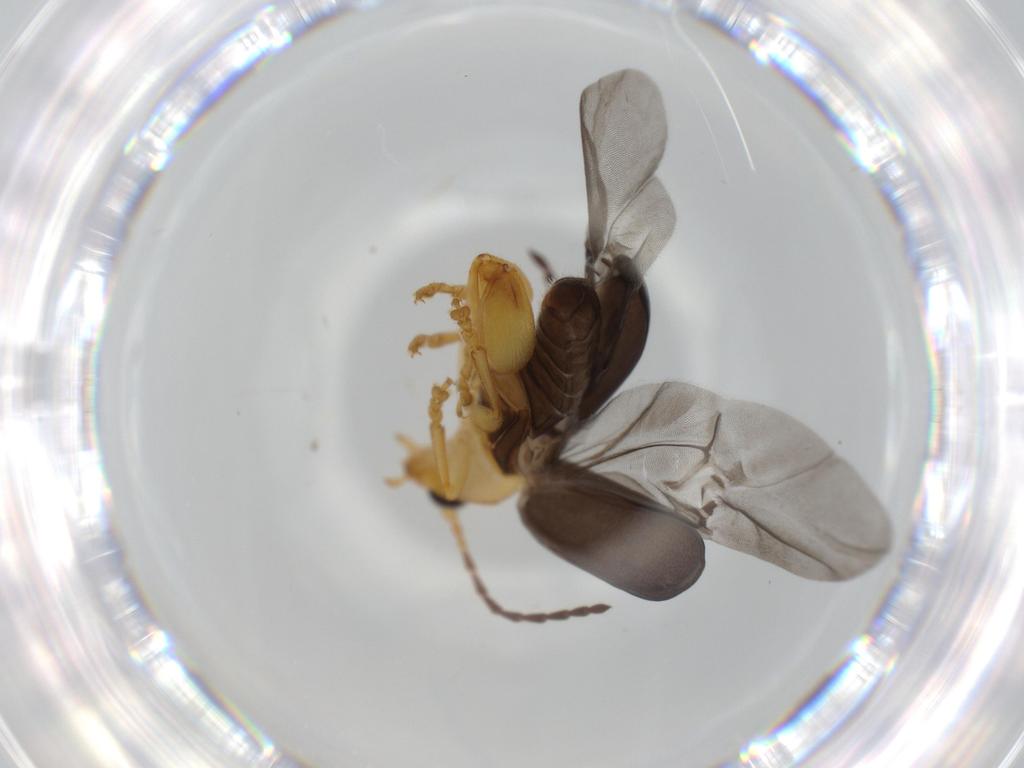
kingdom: Animalia
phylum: Arthropoda
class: Insecta
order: Coleoptera
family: Chrysomelidae
